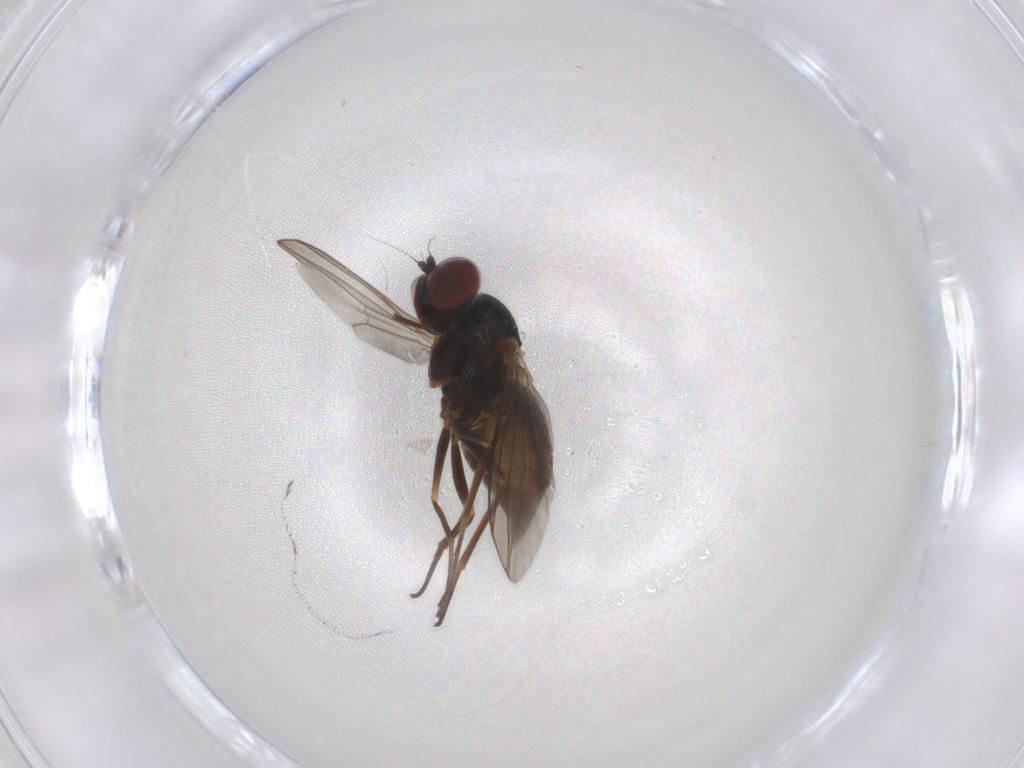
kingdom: Animalia
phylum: Arthropoda
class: Insecta
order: Diptera
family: Dolichopodidae
